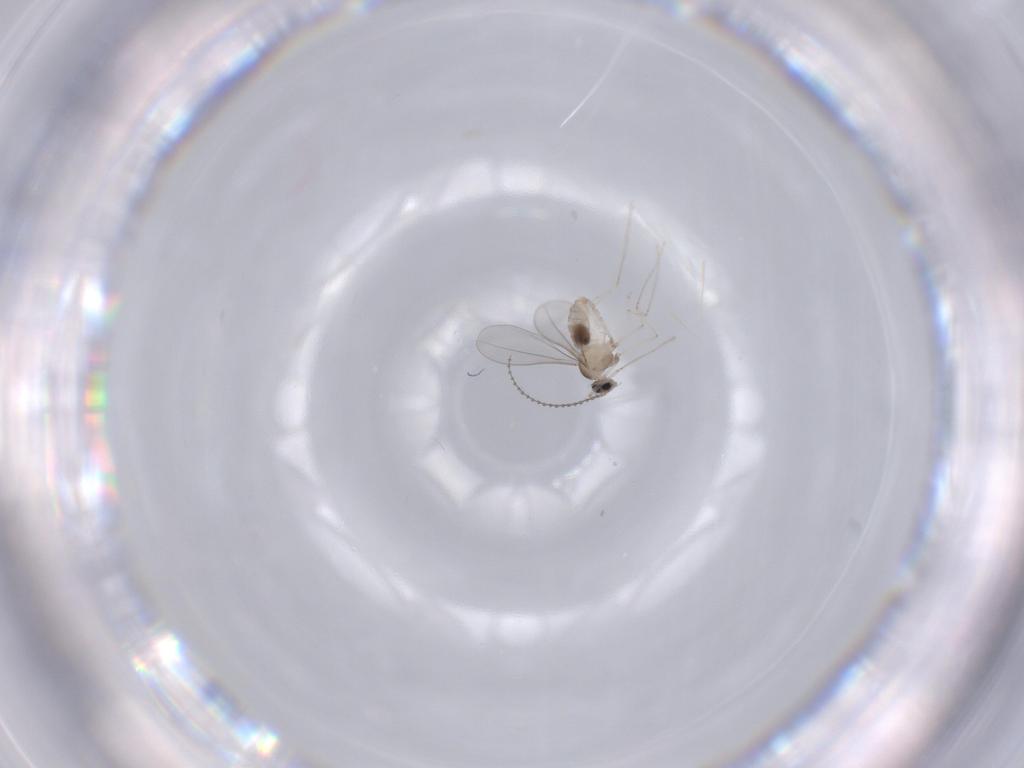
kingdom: Animalia
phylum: Arthropoda
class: Insecta
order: Diptera
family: Cecidomyiidae
